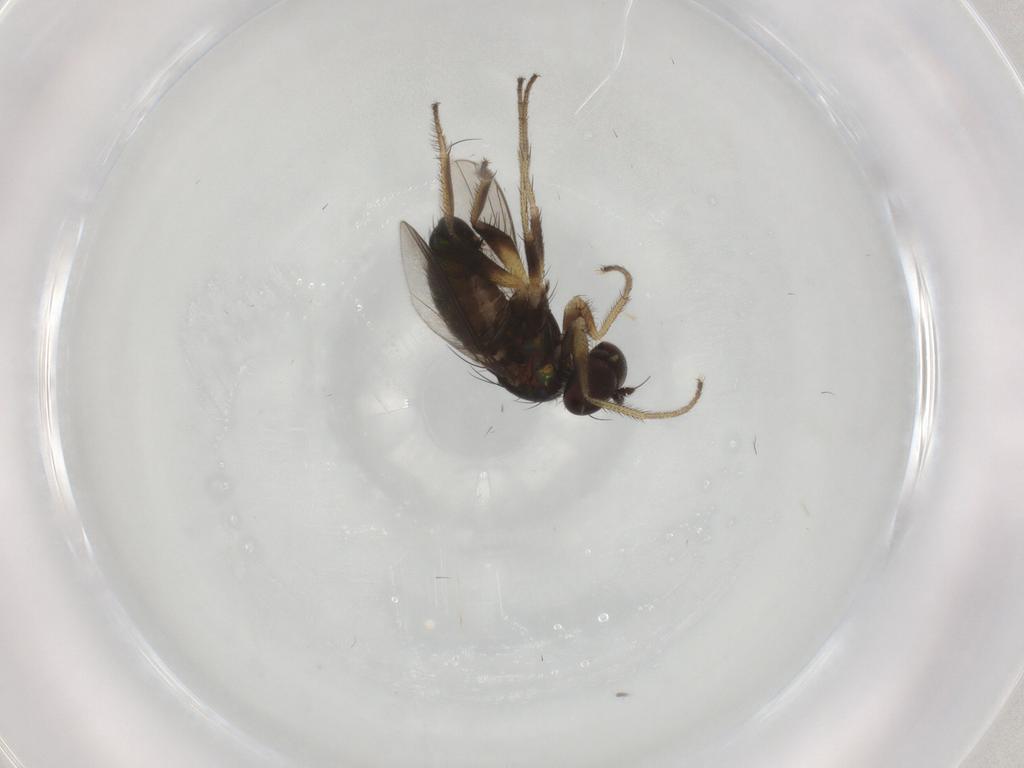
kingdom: Animalia
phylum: Arthropoda
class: Insecta
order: Diptera
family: Dolichopodidae
